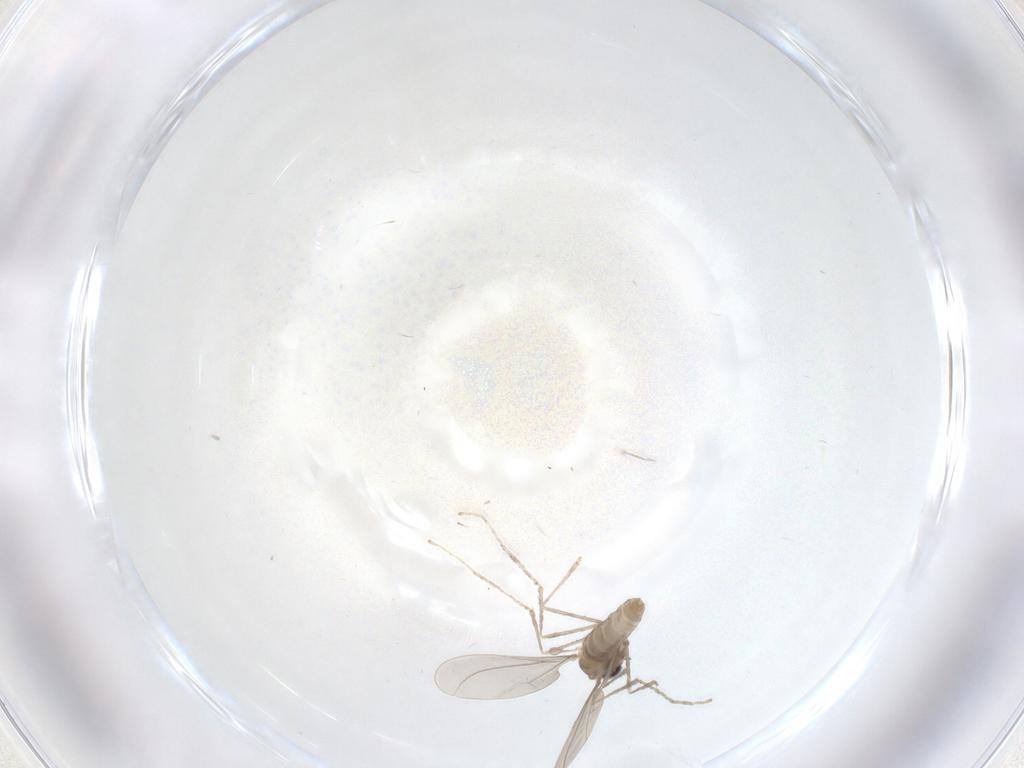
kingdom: Animalia
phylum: Arthropoda
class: Insecta
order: Diptera
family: Cecidomyiidae
